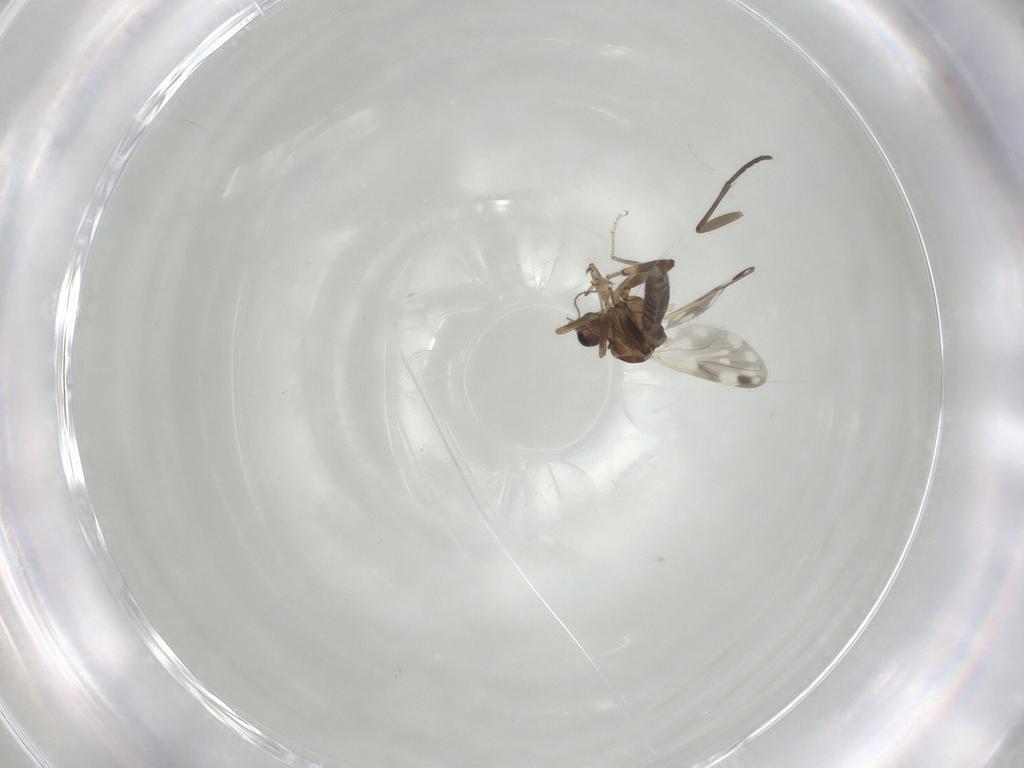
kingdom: Animalia
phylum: Arthropoda
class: Insecta
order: Diptera
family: Ceratopogonidae
